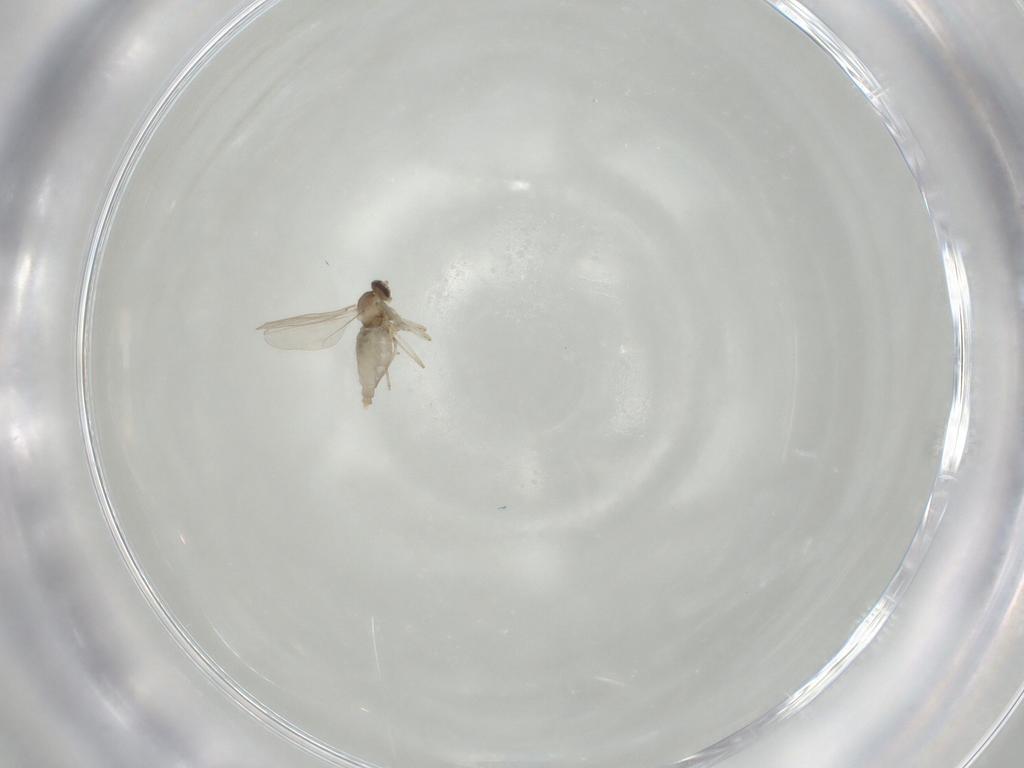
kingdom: Animalia
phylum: Arthropoda
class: Insecta
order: Diptera
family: Cecidomyiidae
